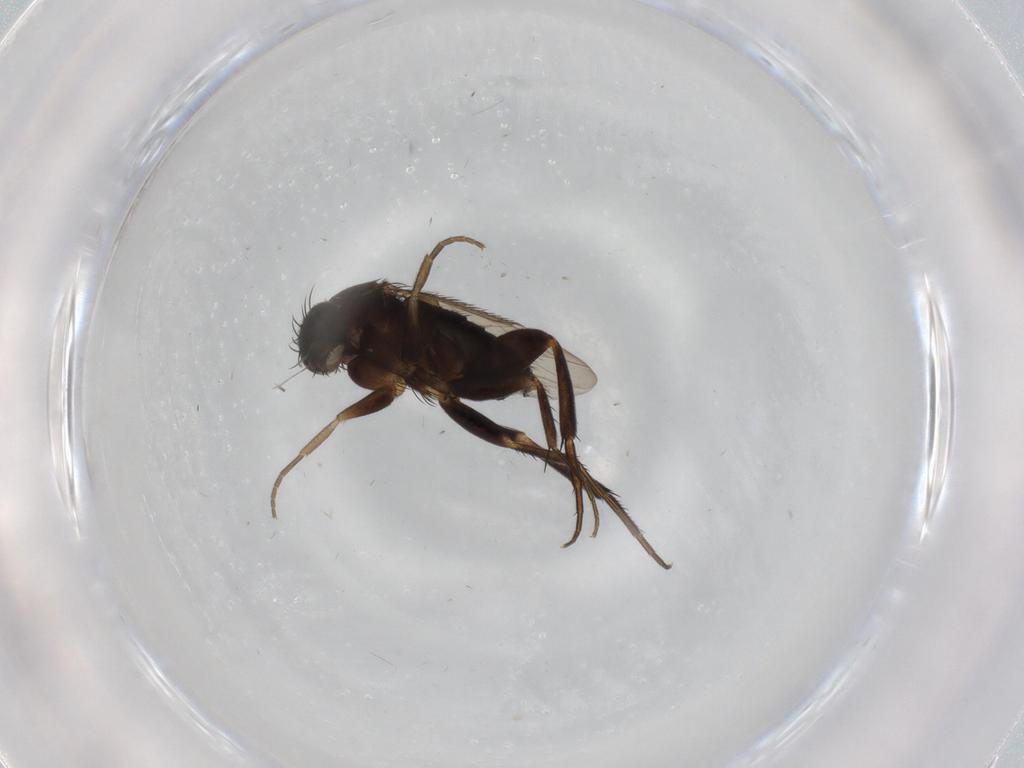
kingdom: Animalia
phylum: Arthropoda
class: Insecta
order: Diptera
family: Phoridae
